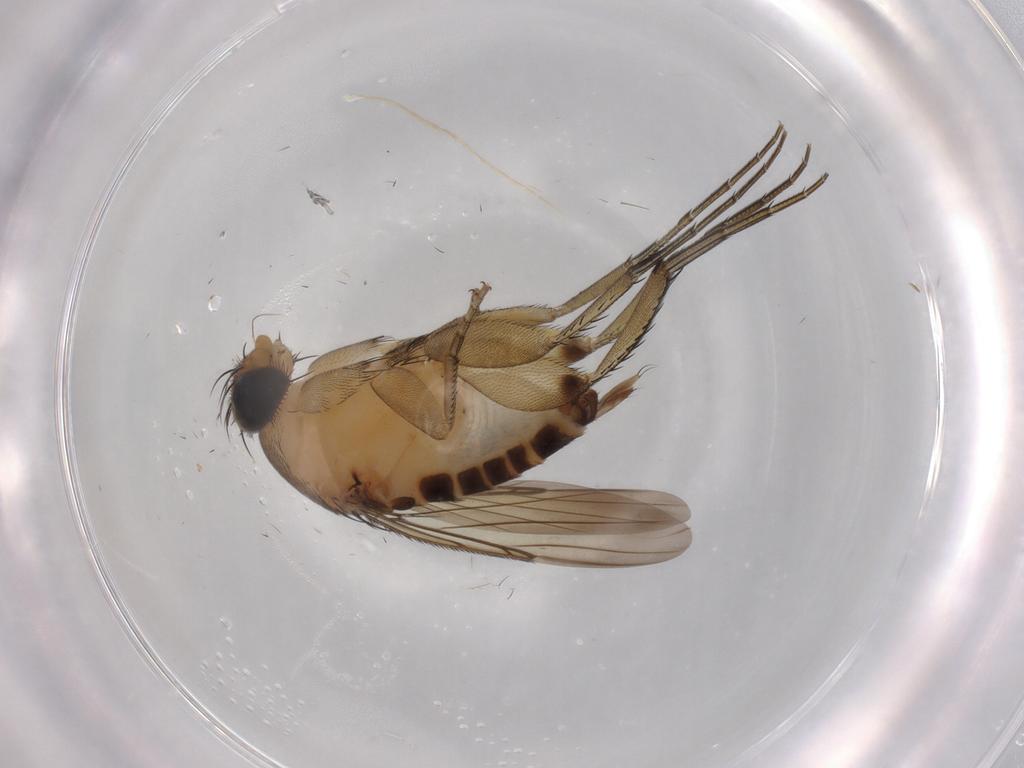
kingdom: Animalia
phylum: Arthropoda
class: Insecta
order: Diptera
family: Phoridae
